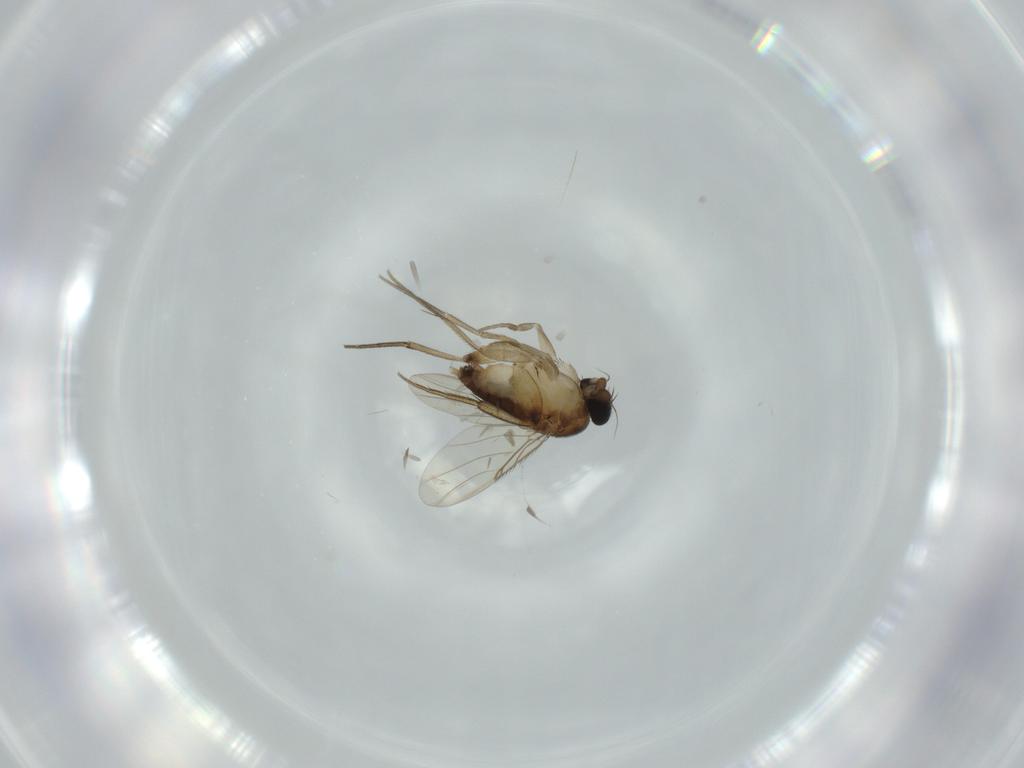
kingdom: Animalia
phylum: Arthropoda
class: Insecta
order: Diptera
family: Phoridae
